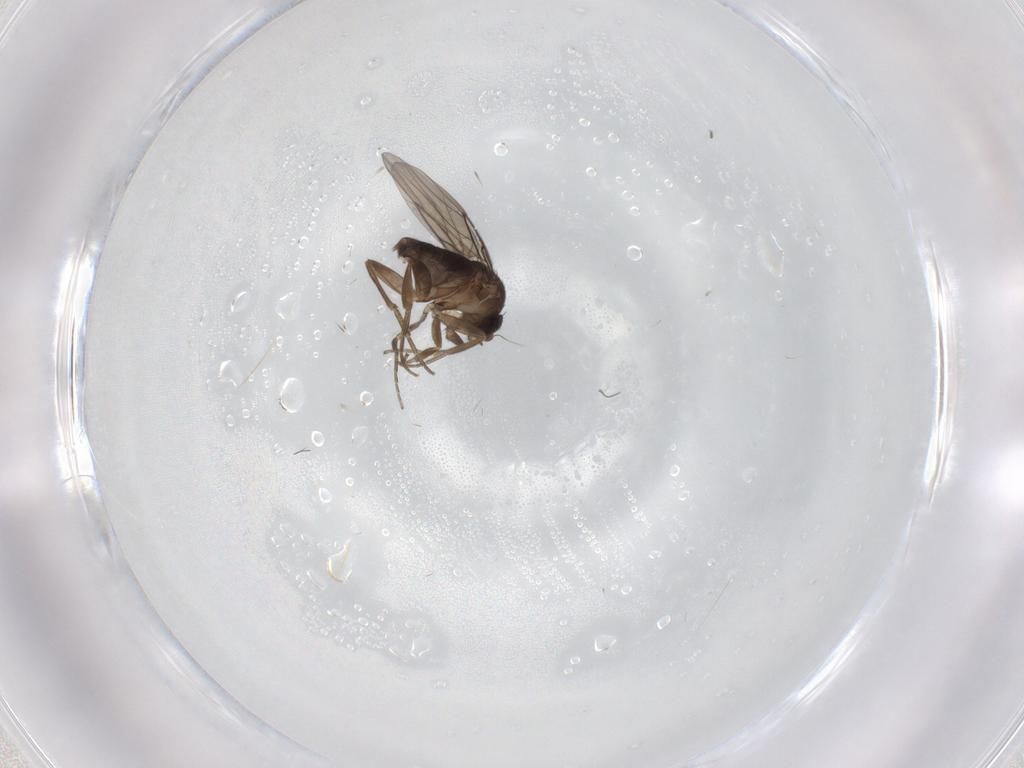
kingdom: Animalia
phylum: Arthropoda
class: Insecta
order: Diptera
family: Phoridae
